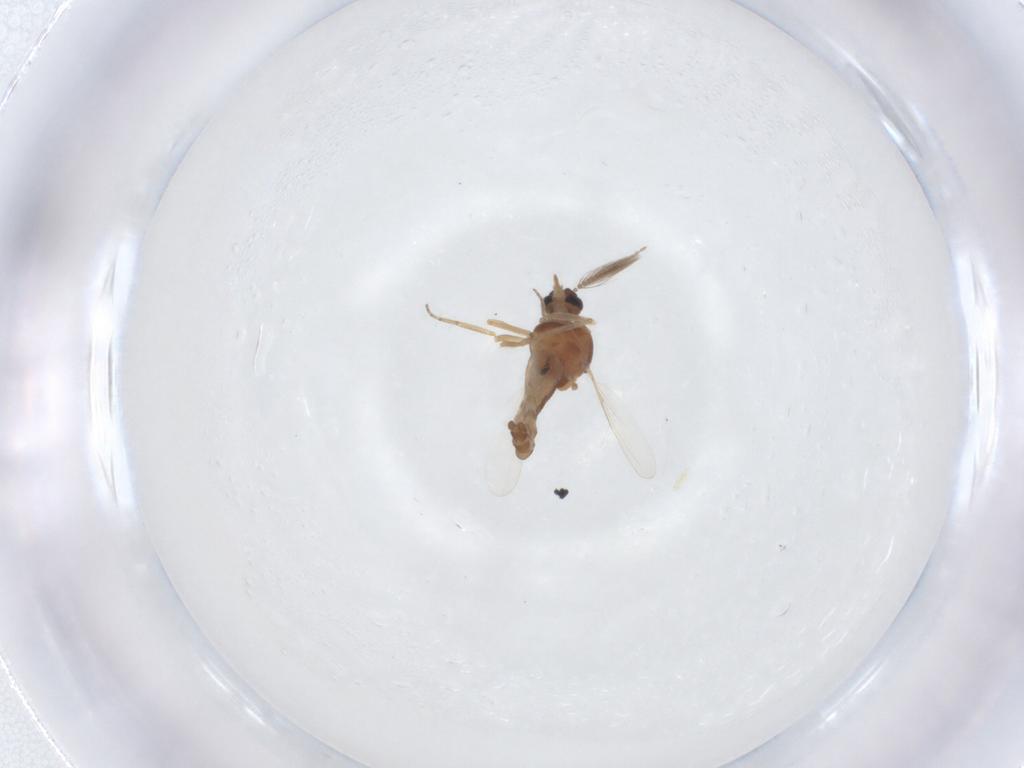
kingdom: Animalia
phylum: Arthropoda
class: Insecta
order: Diptera
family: Ceratopogonidae
